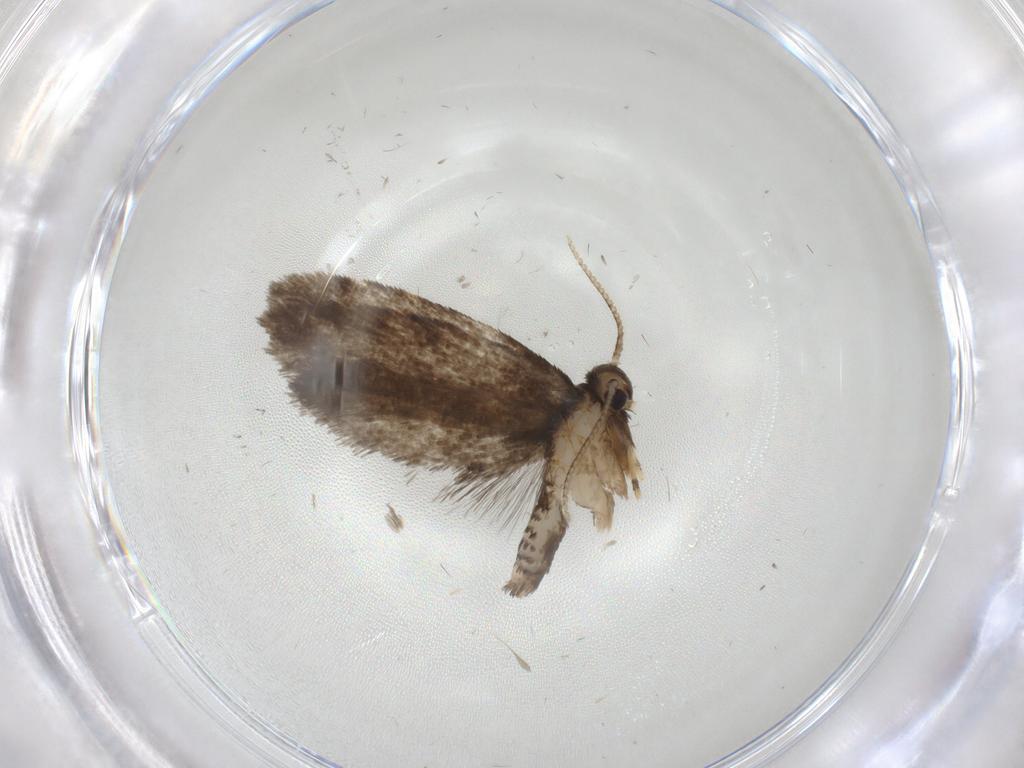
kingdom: Animalia
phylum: Arthropoda
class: Insecta
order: Lepidoptera
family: Psychidae
